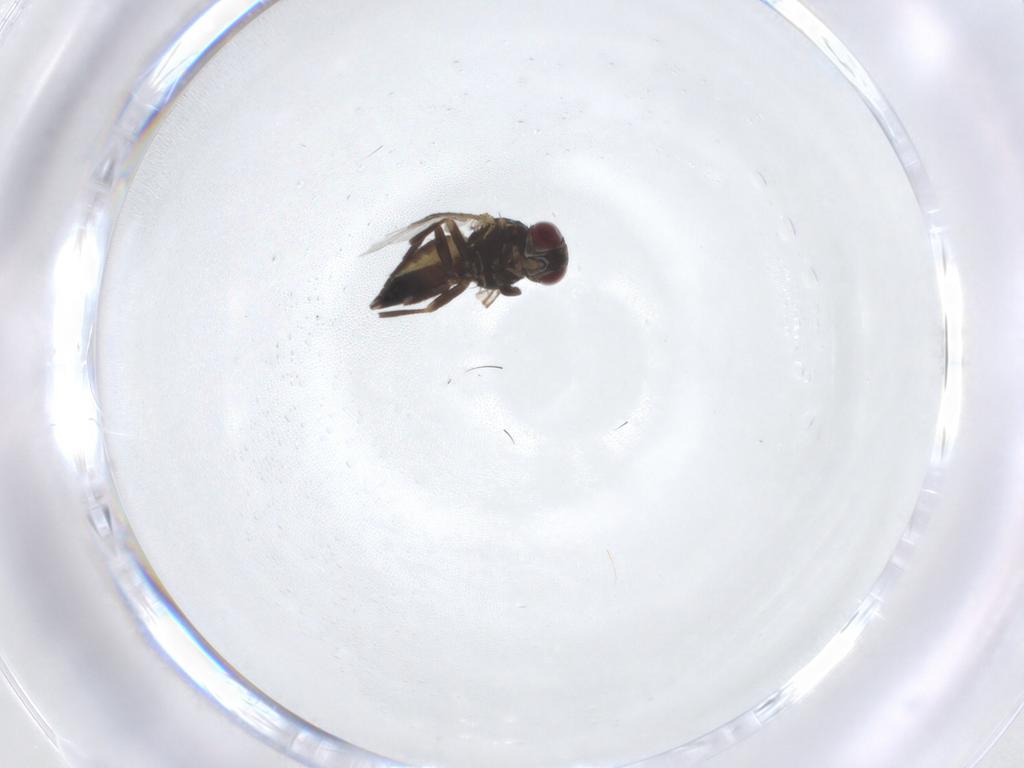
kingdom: Animalia
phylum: Arthropoda
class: Insecta
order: Diptera
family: Agromyzidae
